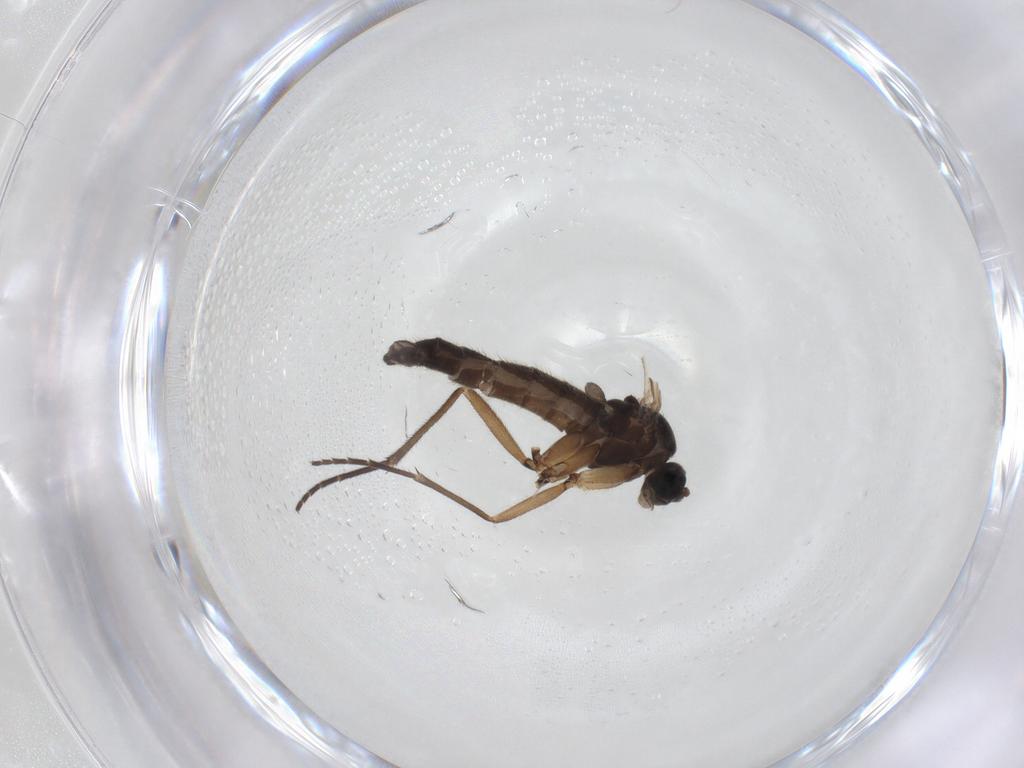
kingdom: Animalia
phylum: Arthropoda
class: Insecta
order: Diptera
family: Sciaridae
